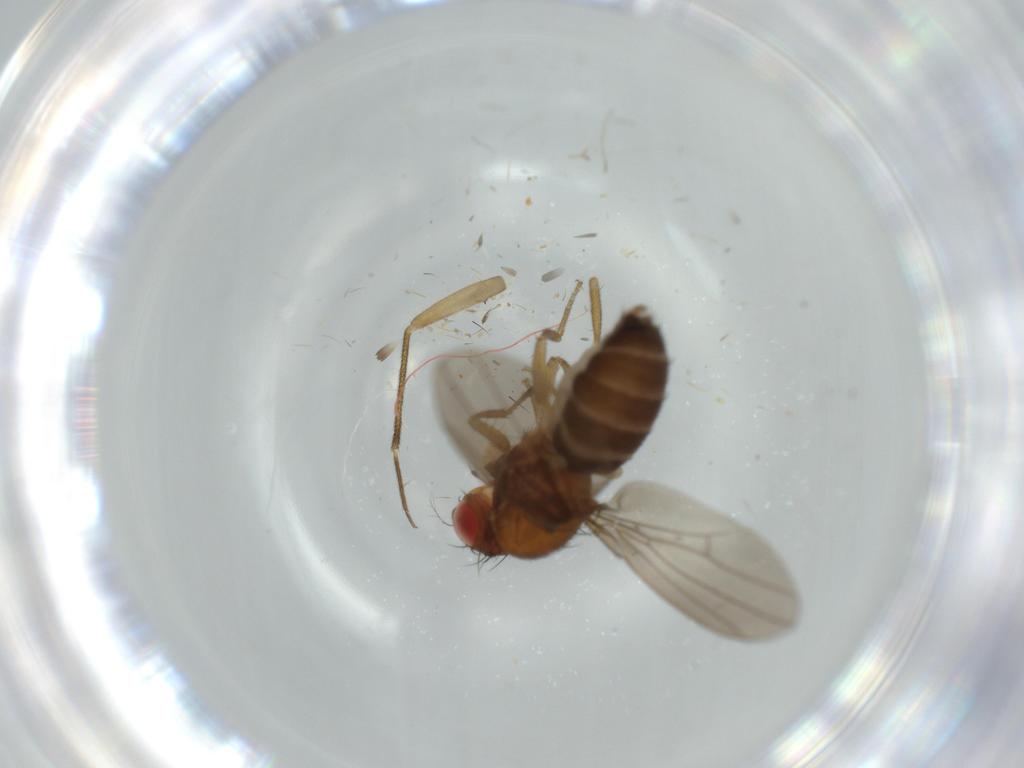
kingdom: Animalia
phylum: Arthropoda
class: Insecta
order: Diptera
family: Drosophilidae
